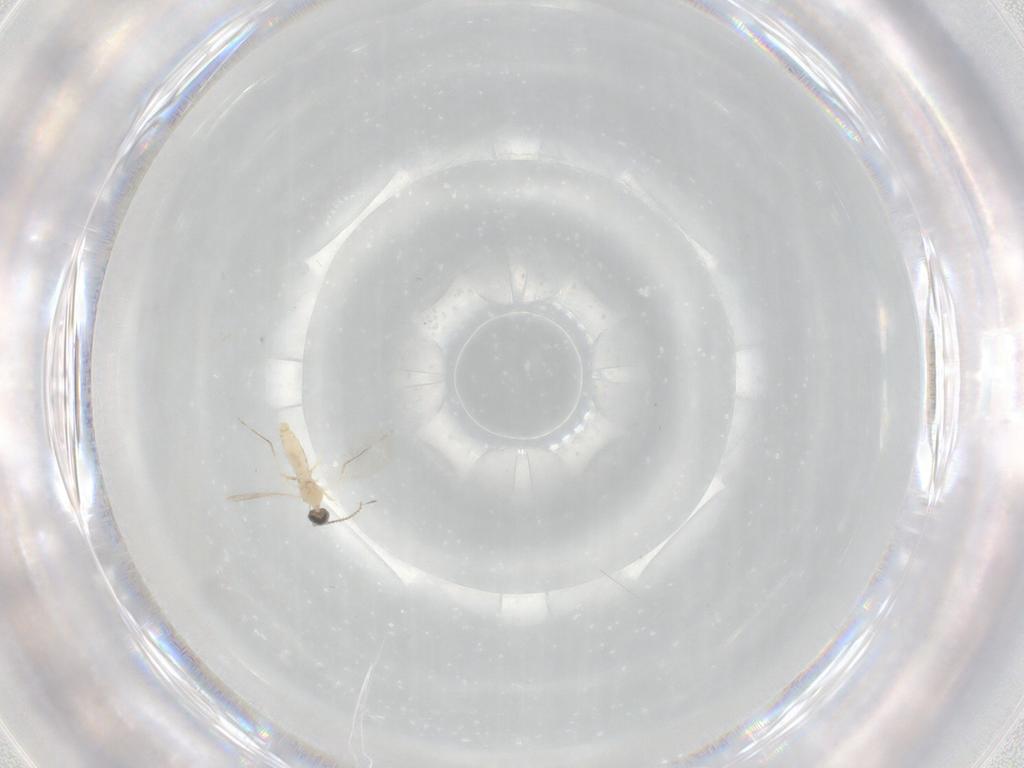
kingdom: Animalia
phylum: Arthropoda
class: Insecta
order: Diptera
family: Cecidomyiidae
